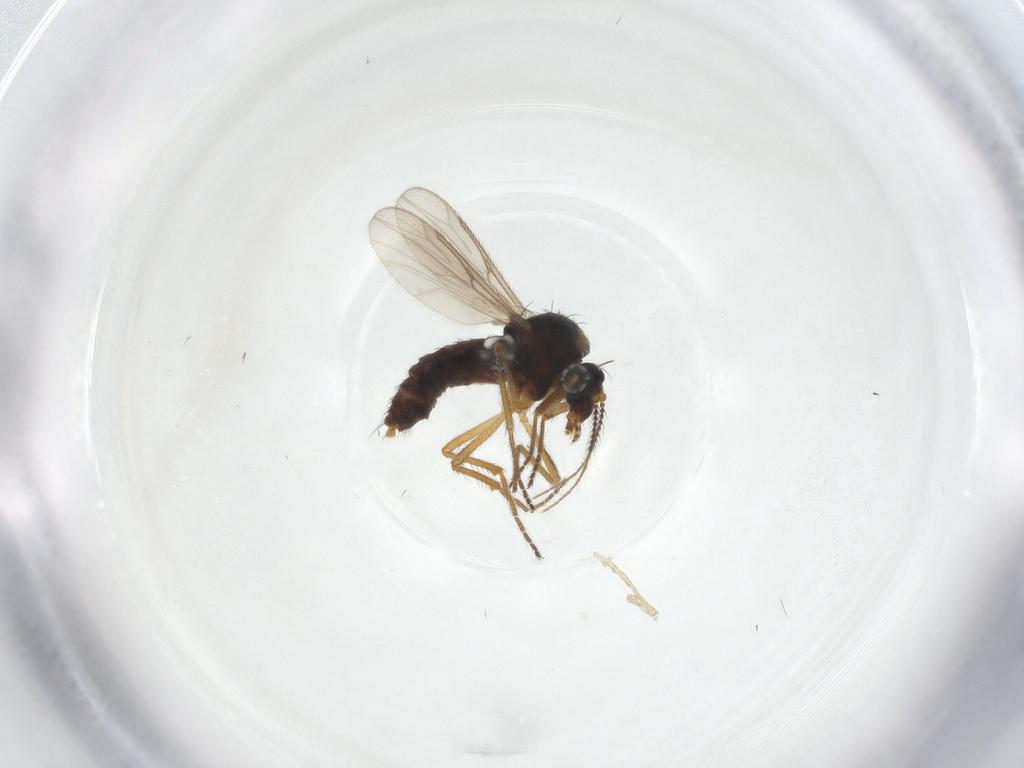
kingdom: Animalia
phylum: Arthropoda
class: Insecta
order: Diptera
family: Ceratopogonidae
